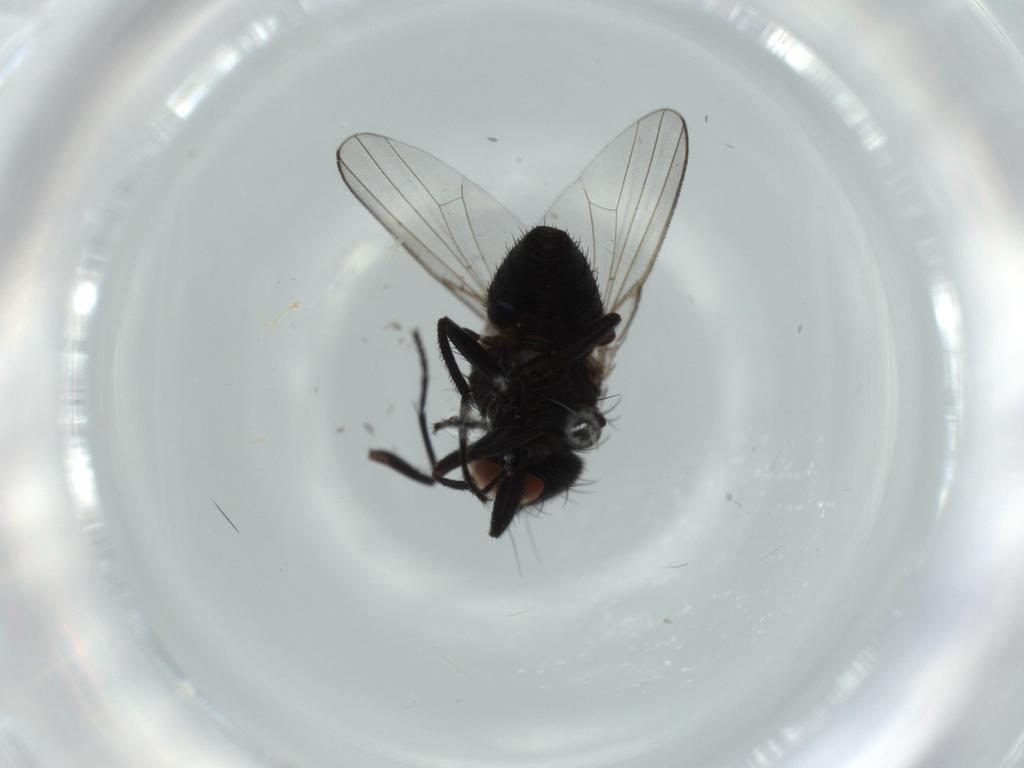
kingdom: Animalia
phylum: Arthropoda
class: Insecta
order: Diptera
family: Milichiidae
